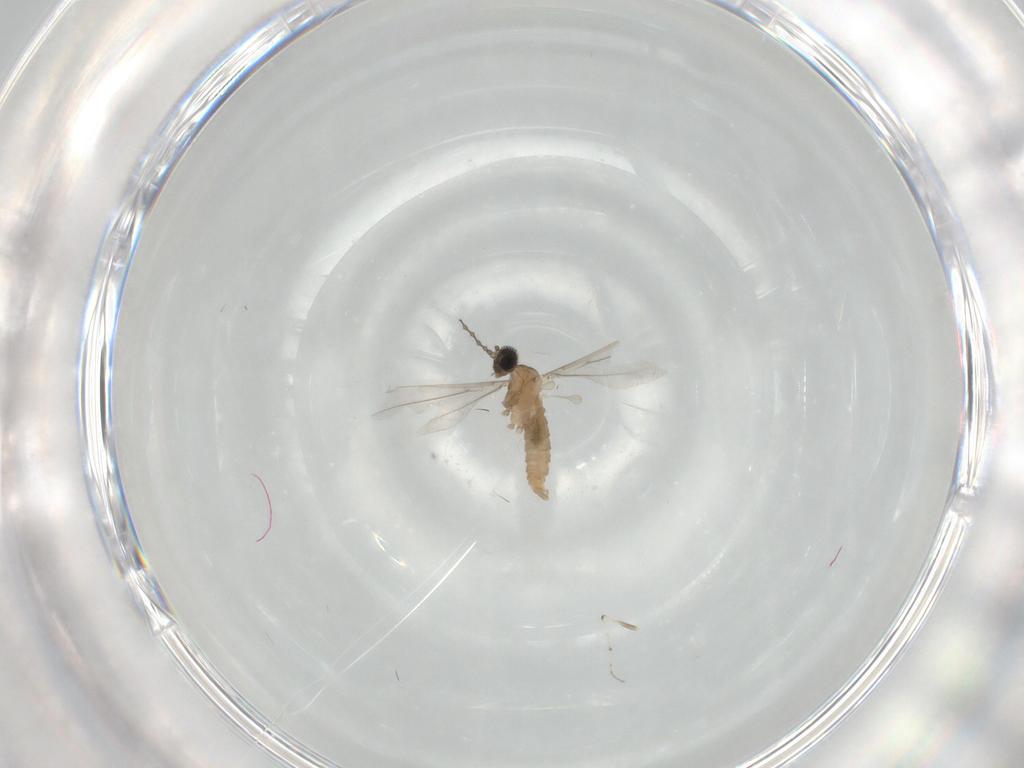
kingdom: Animalia
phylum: Arthropoda
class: Insecta
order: Diptera
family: Cecidomyiidae
